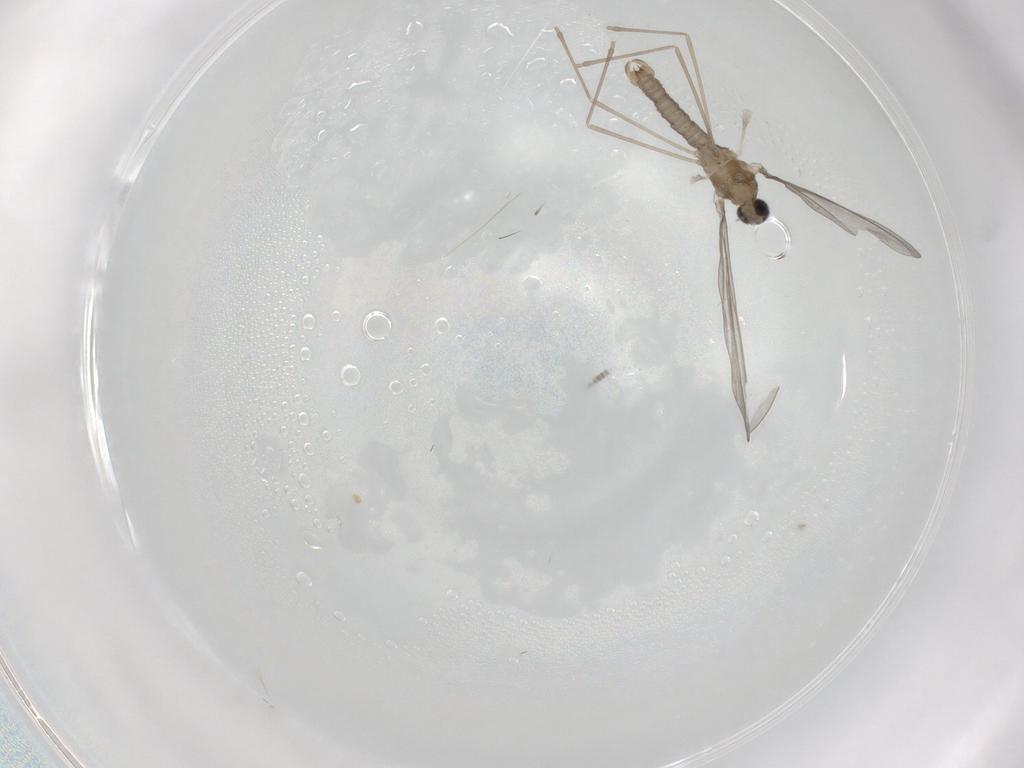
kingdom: Animalia
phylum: Arthropoda
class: Insecta
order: Diptera
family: Cecidomyiidae
